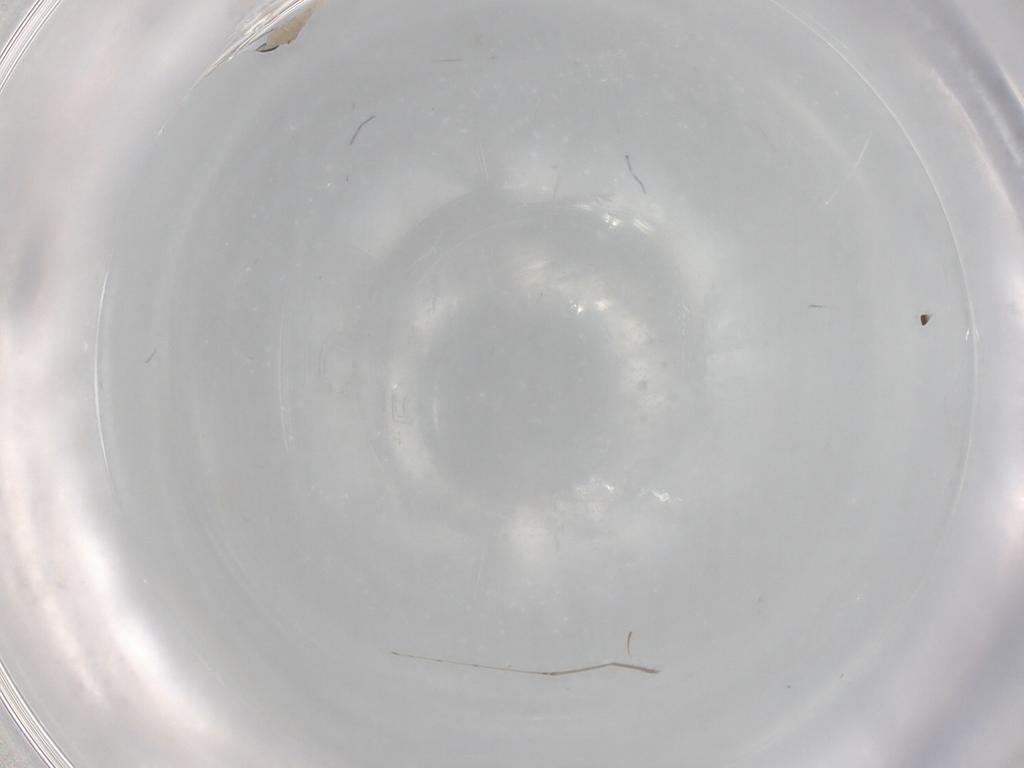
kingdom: Animalia
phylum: Arthropoda
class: Insecta
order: Diptera
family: Cecidomyiidae
